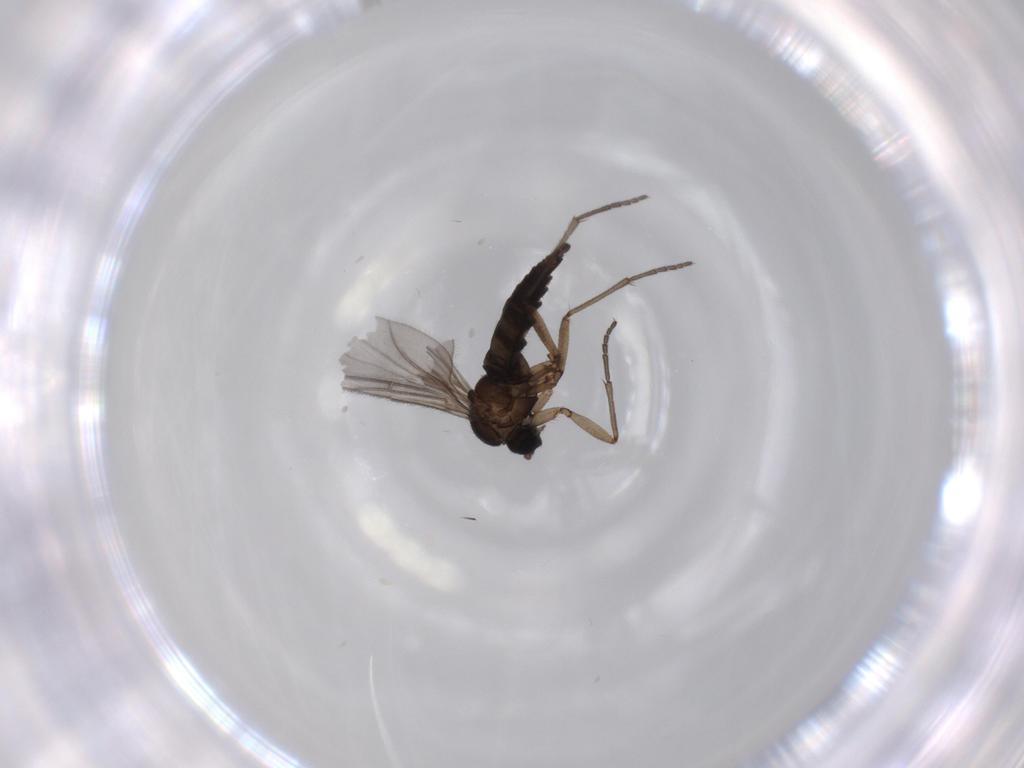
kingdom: Animalia
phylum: Arthropoda
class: Insecta
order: Diptera
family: Sciaridae
